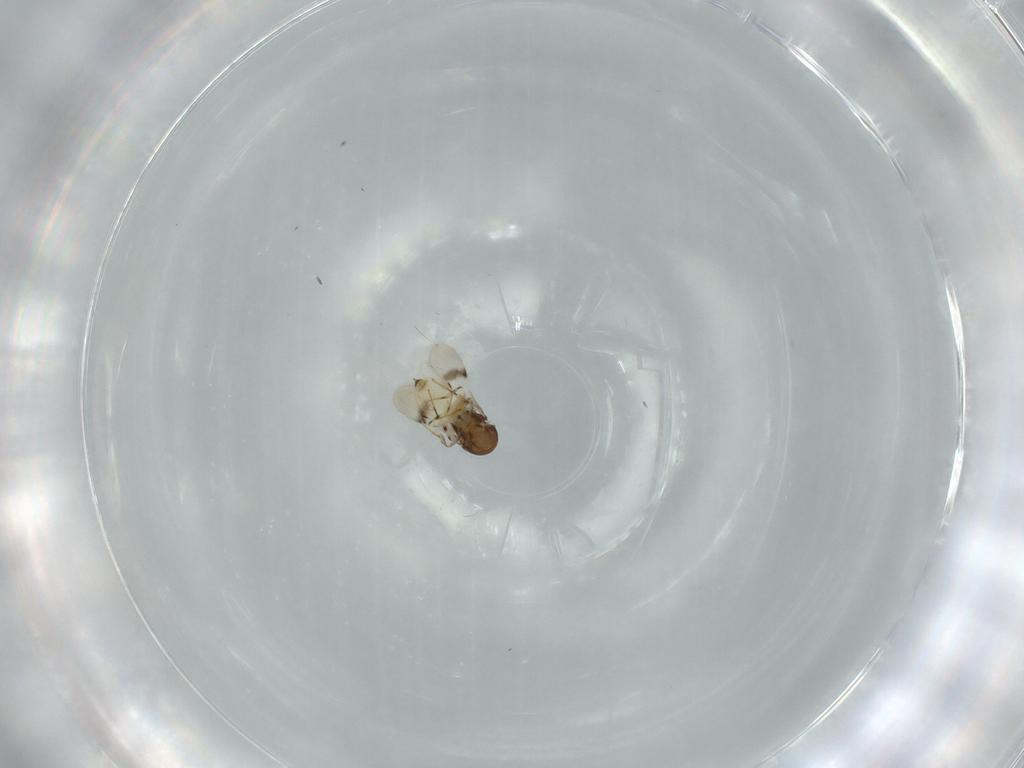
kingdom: Animalia
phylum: Arthropoda
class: Insecta
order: Hymenoptera
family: Scelionidae
